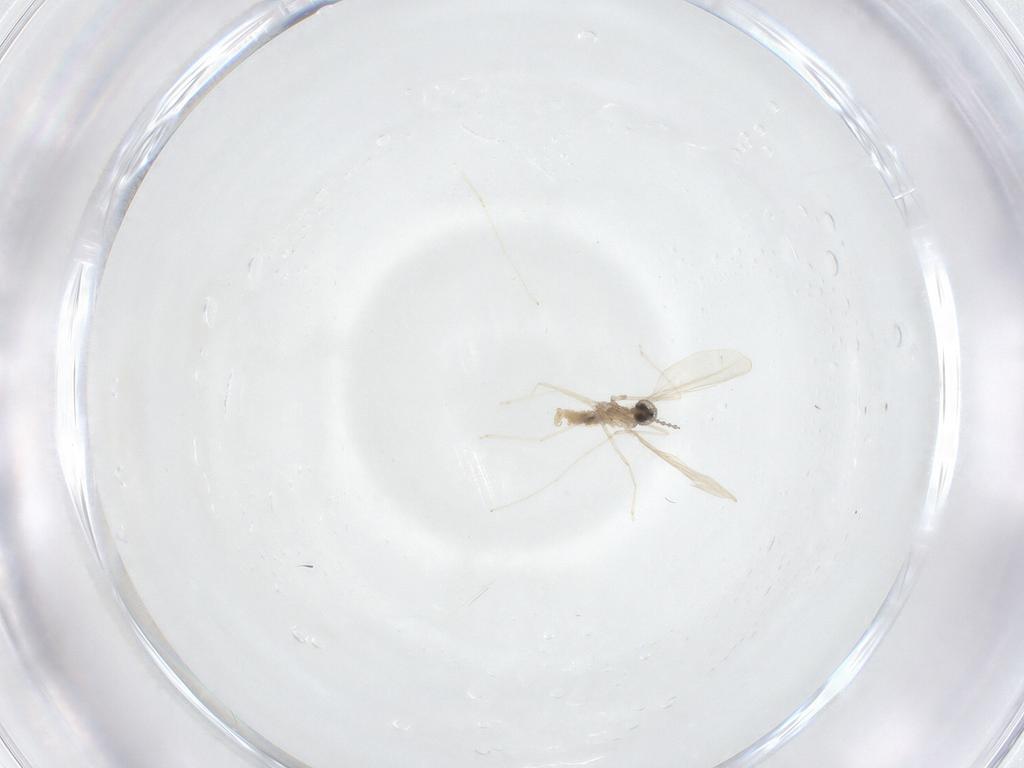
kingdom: Animalia
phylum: Arthropoda
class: Insecta
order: Diptera
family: Cecidomyiidae
